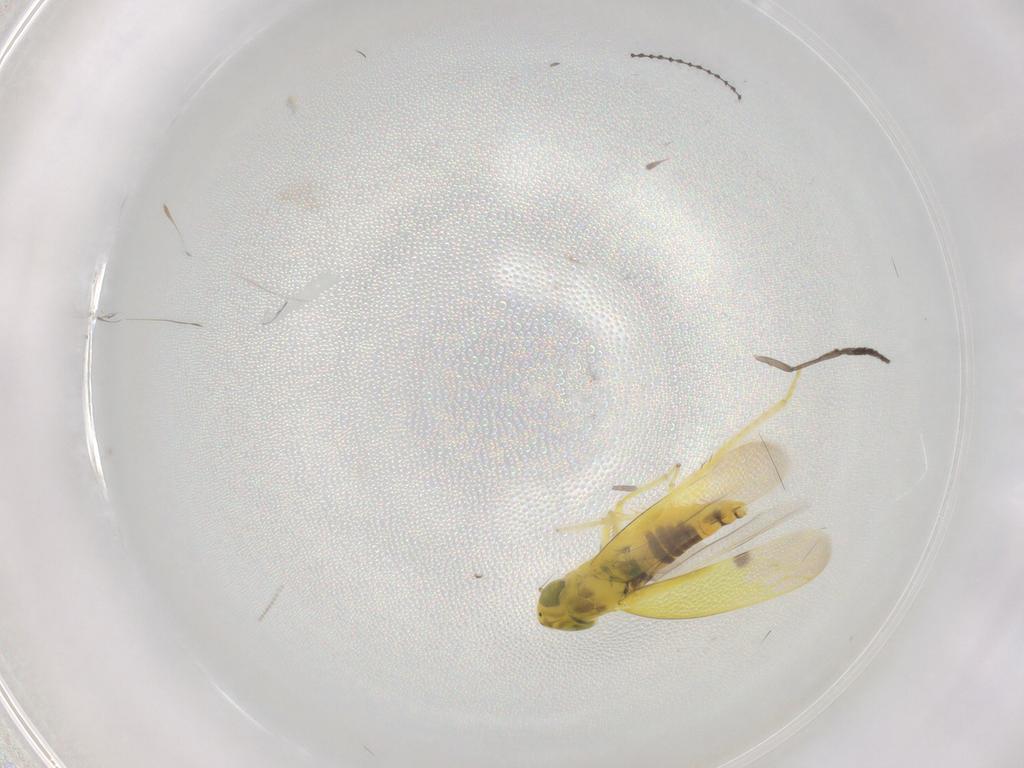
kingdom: Animalia
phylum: Arthropoda
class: Insecta
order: Hemiptera
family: Cicadellidae
